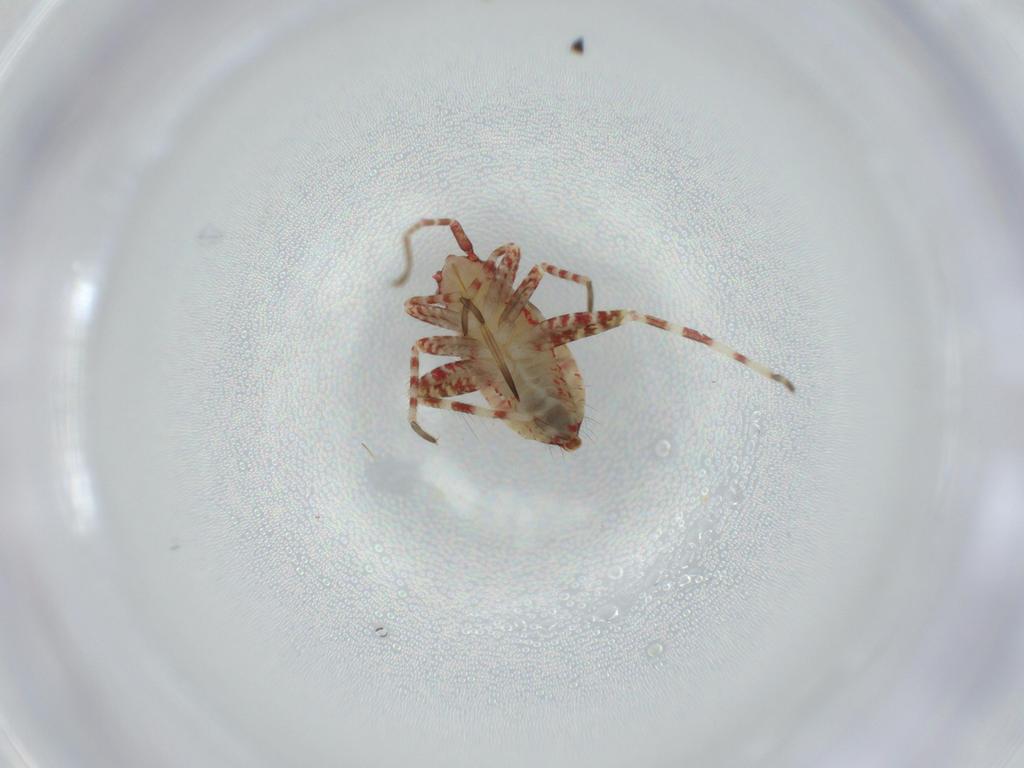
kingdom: Animalia
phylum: Arthropoda
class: Insecta
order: Hemiptera
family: Miridae
